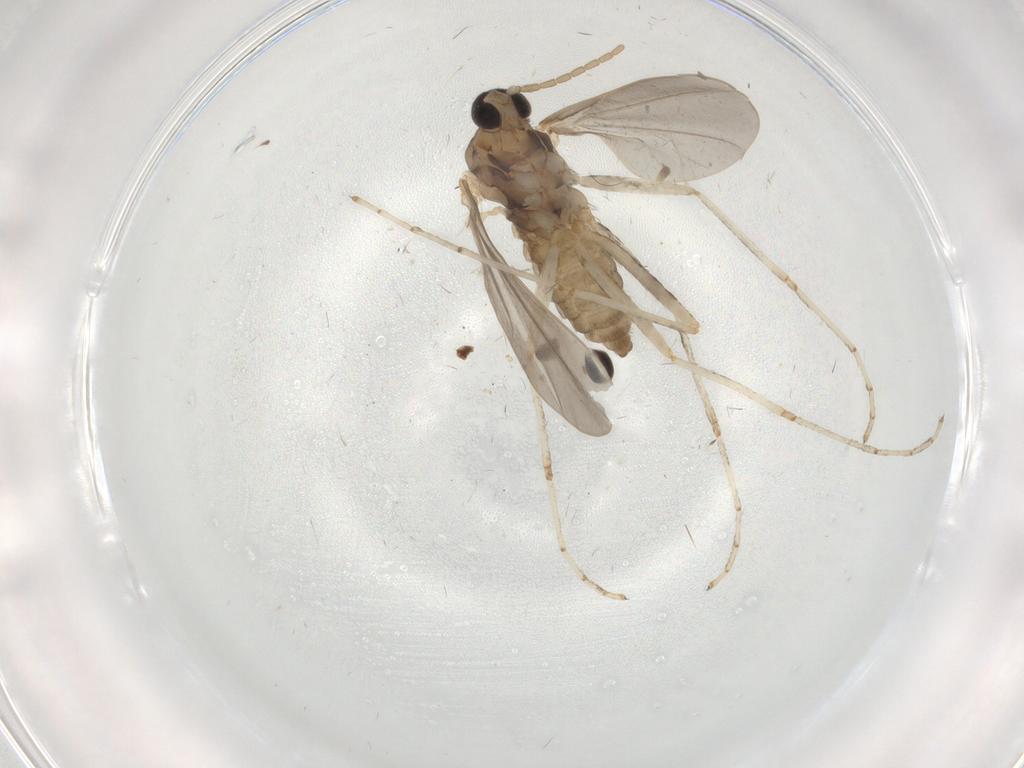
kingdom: Animalia
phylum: Arthropoda
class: Insecta
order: Diptera
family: Cecidomyiidae
